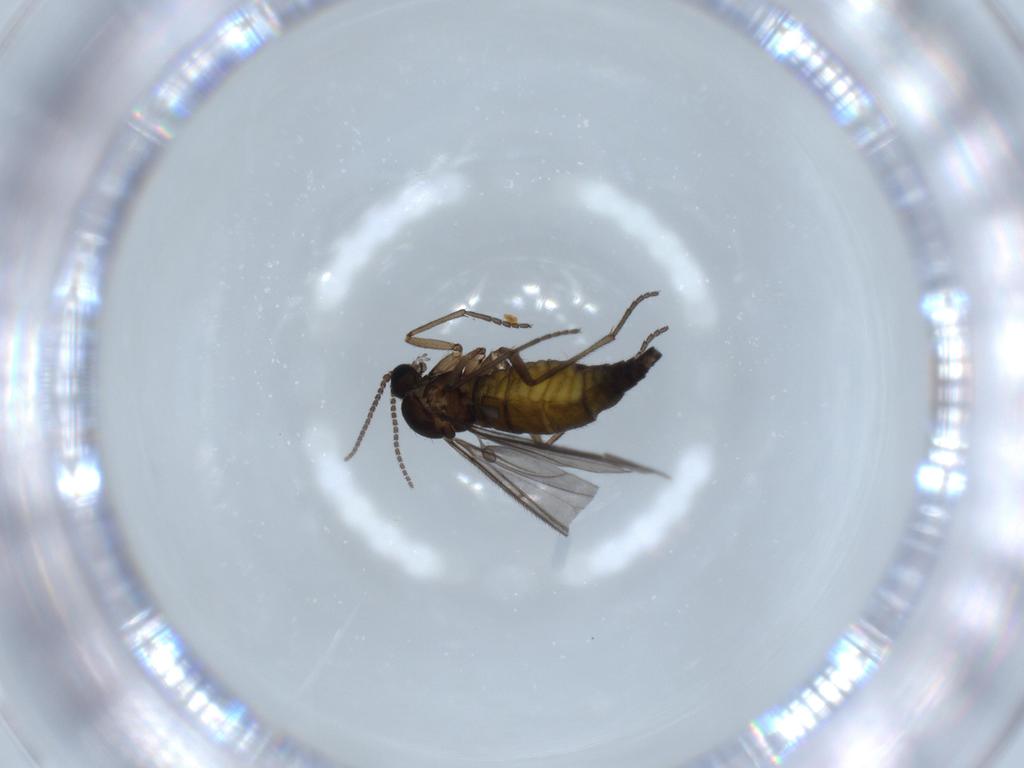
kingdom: Animalia
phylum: Arthropoda
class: Insecta
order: Diptera
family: Sciaridae
